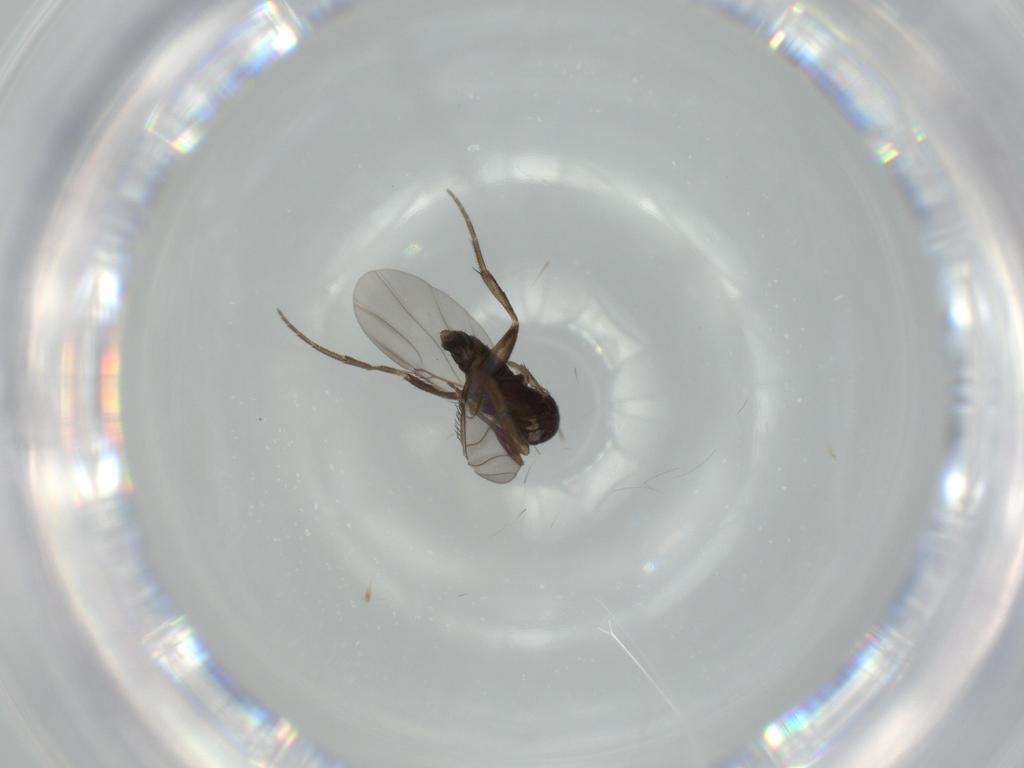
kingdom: Animalia
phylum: Arthropoda
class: Insecta
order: Diptera
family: Phoridae
